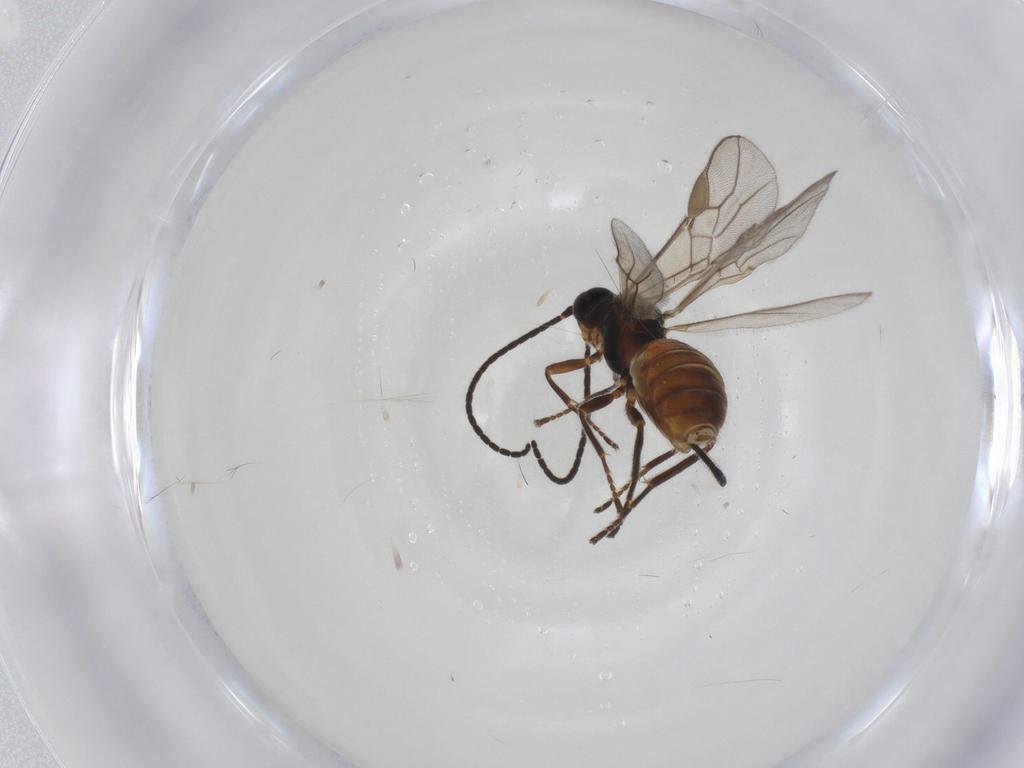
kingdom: Animalia
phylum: Arthropoda
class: Insecta
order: Hymenoptera
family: Braconidae
